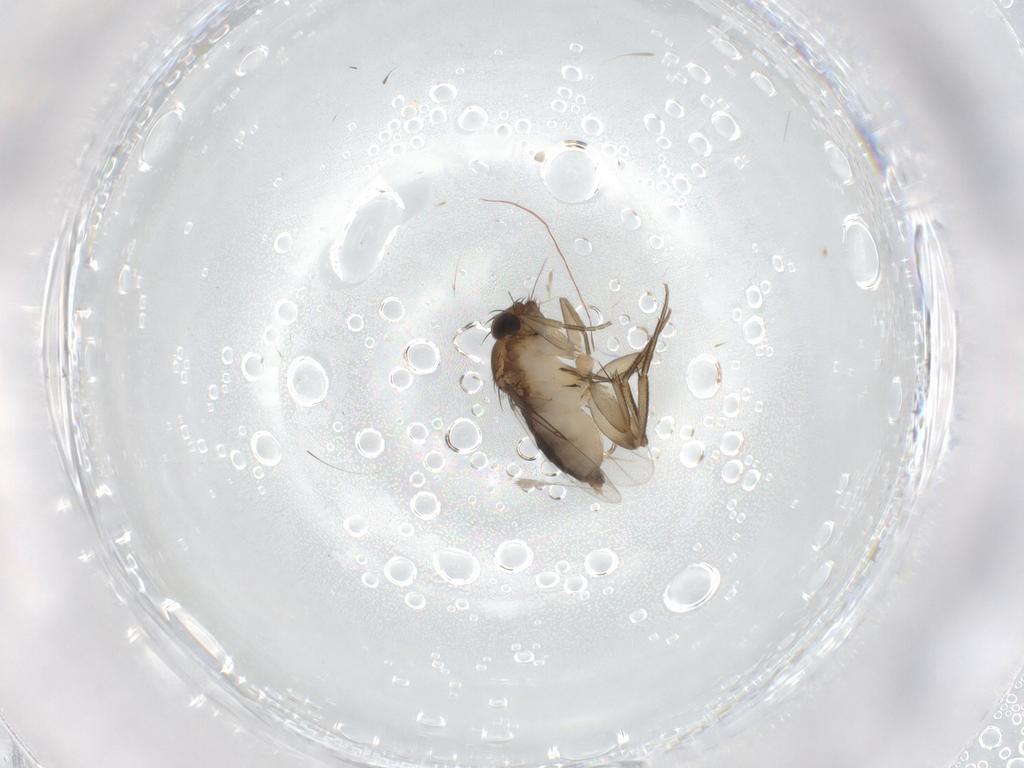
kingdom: Animalia
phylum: Arthropoda
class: Insecta
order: Diptera
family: Phoridae
